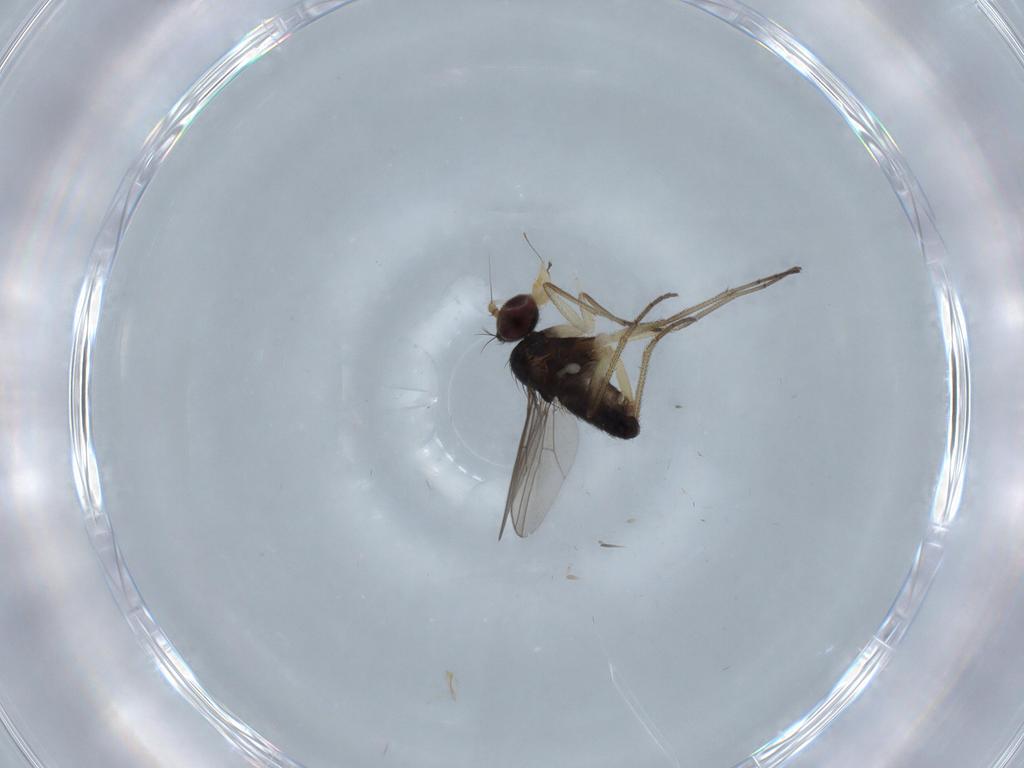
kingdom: Animalia
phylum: Arthropoda
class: Insecta
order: Diptera
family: Dolichopodidae
